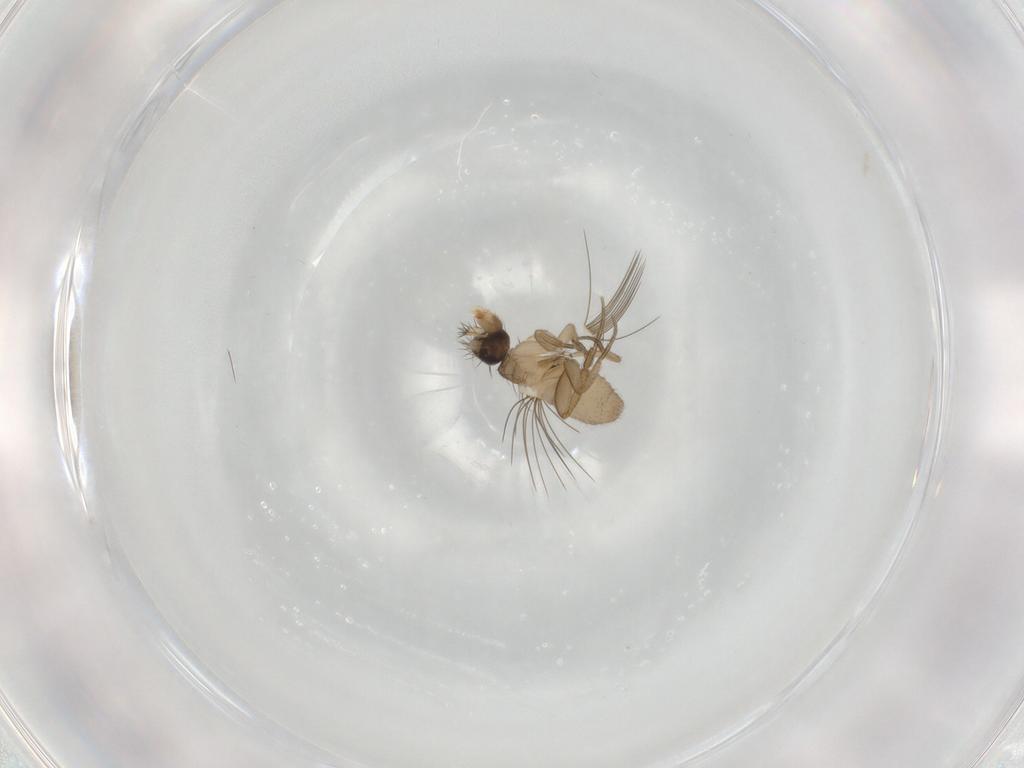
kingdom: Animalia
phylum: Arthropoda
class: Insecta
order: Diptera
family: Phoridae
